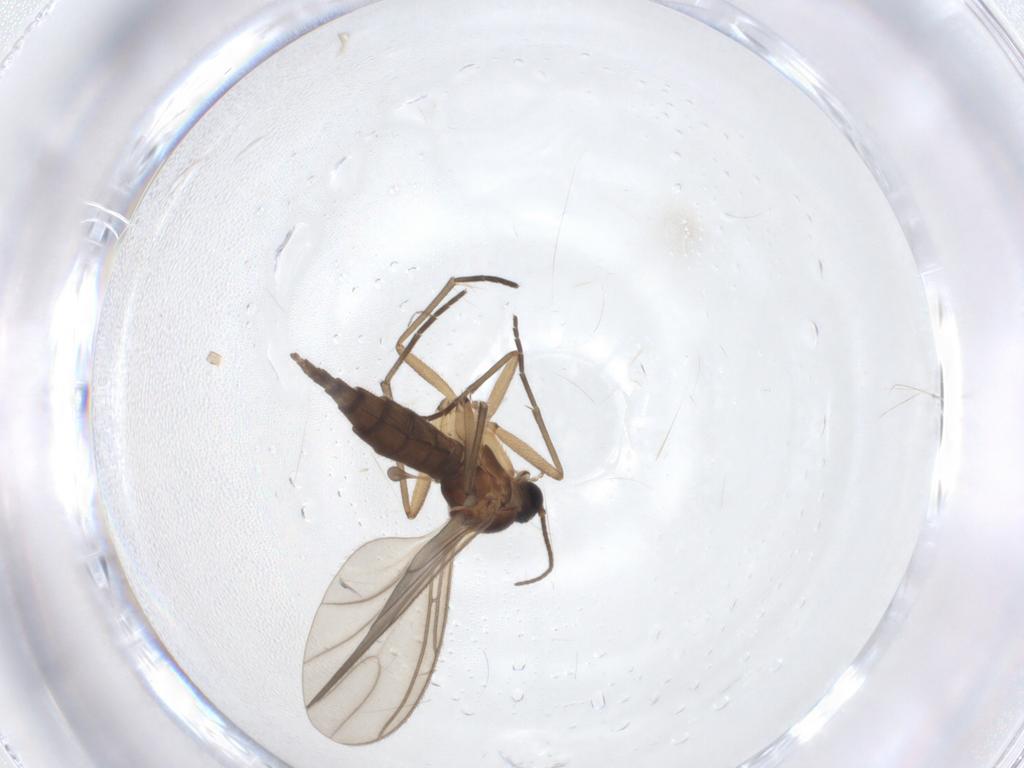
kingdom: Animalia
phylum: Arthropoda
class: Insecta
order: Diptera
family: Sciaridae
